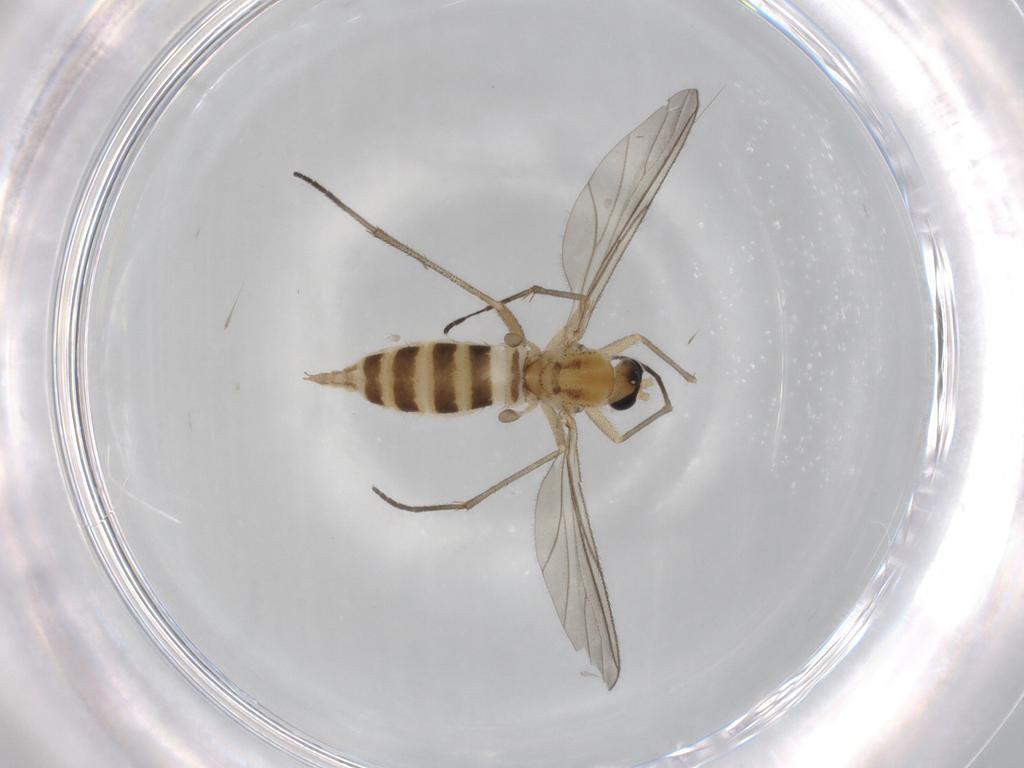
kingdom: Animalia
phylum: Arthropoda
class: Insecta
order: Diptera
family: Sciaridae
